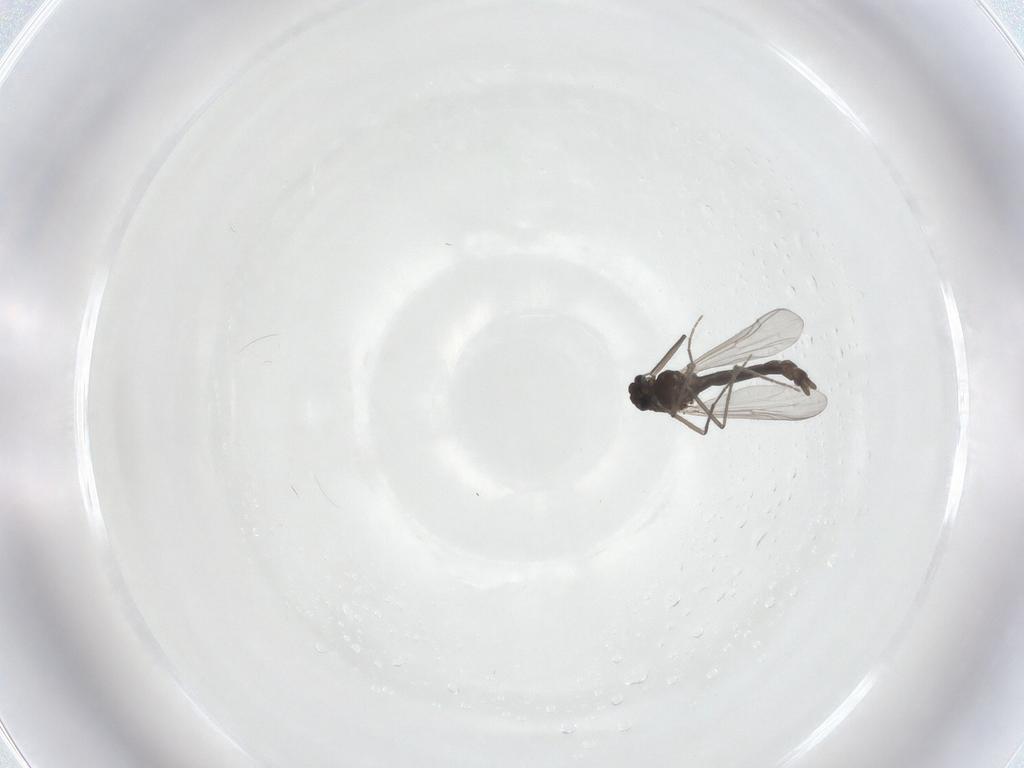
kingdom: Animalia
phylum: Arthropoda
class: Insecta
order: Diptera
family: Chironomidae
